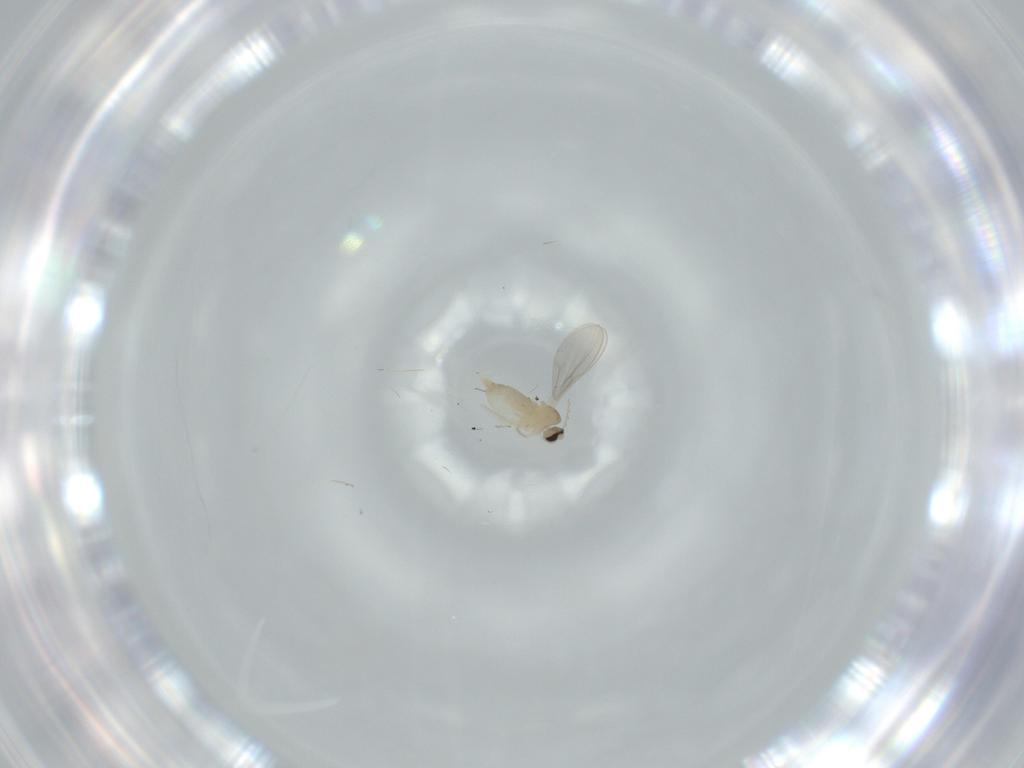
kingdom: Animalia
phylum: Arthropoda
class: Insecta
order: Diptera
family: Cecidomyiidae
